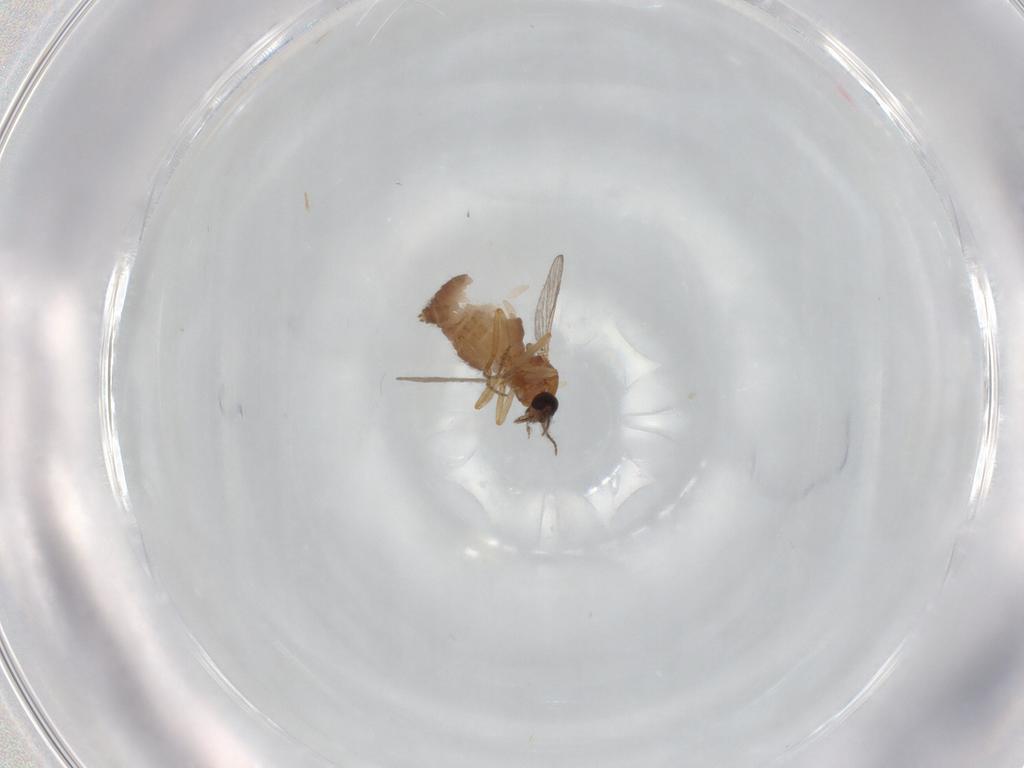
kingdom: Animalia
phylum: Arthropoda
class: Insecta
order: Diptera
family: Ceratopogonidae
